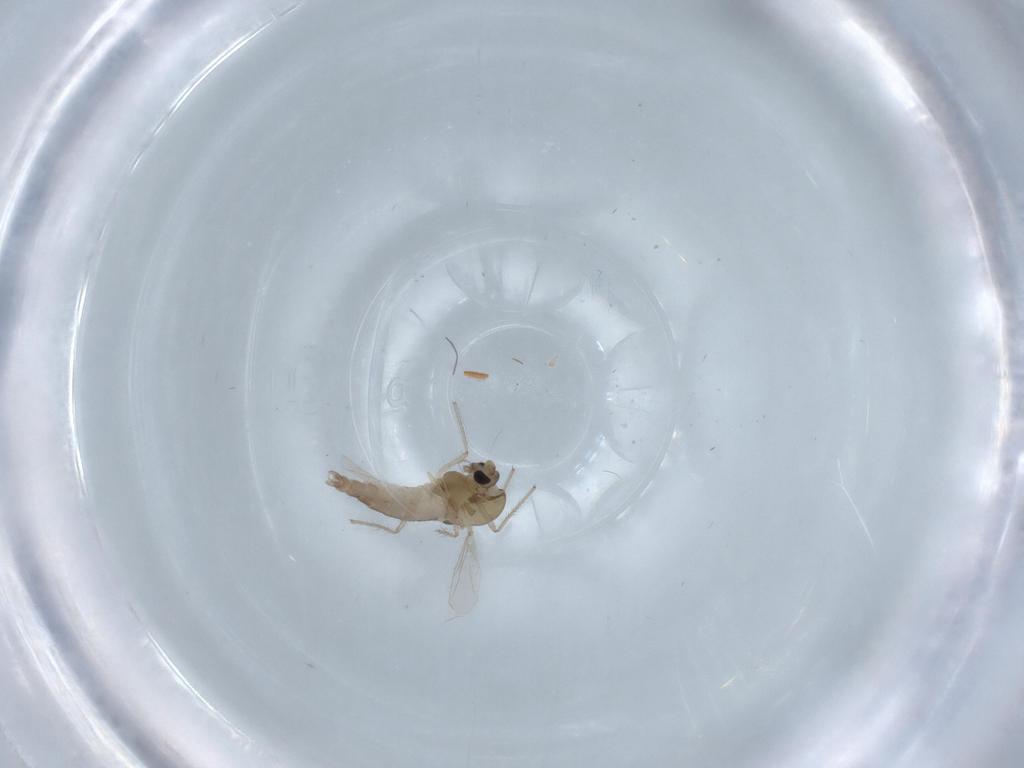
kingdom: Animalia
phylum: Arthropoda
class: Insecta
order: Diptera
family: Chironomidae
